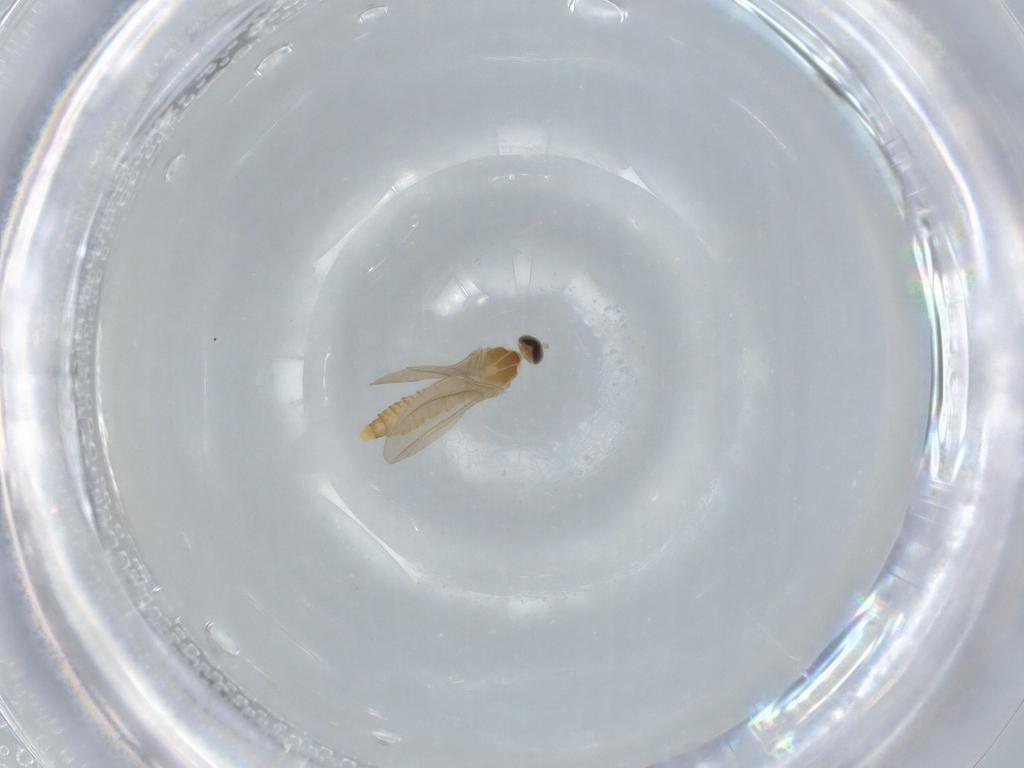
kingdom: Animalia
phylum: Arthropoda
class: Insecta
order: Diptera
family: Cecidomyiidae
